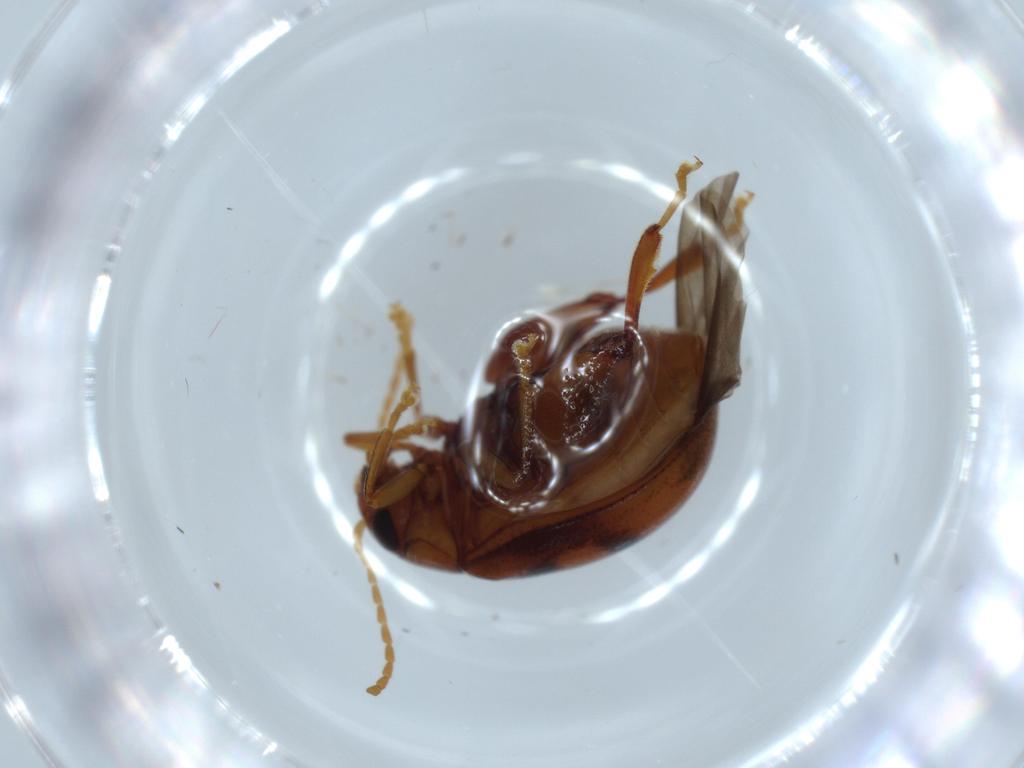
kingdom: Animalia
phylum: Arthropoda
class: Insecta
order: Coleoptera
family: Chrysomelidae
